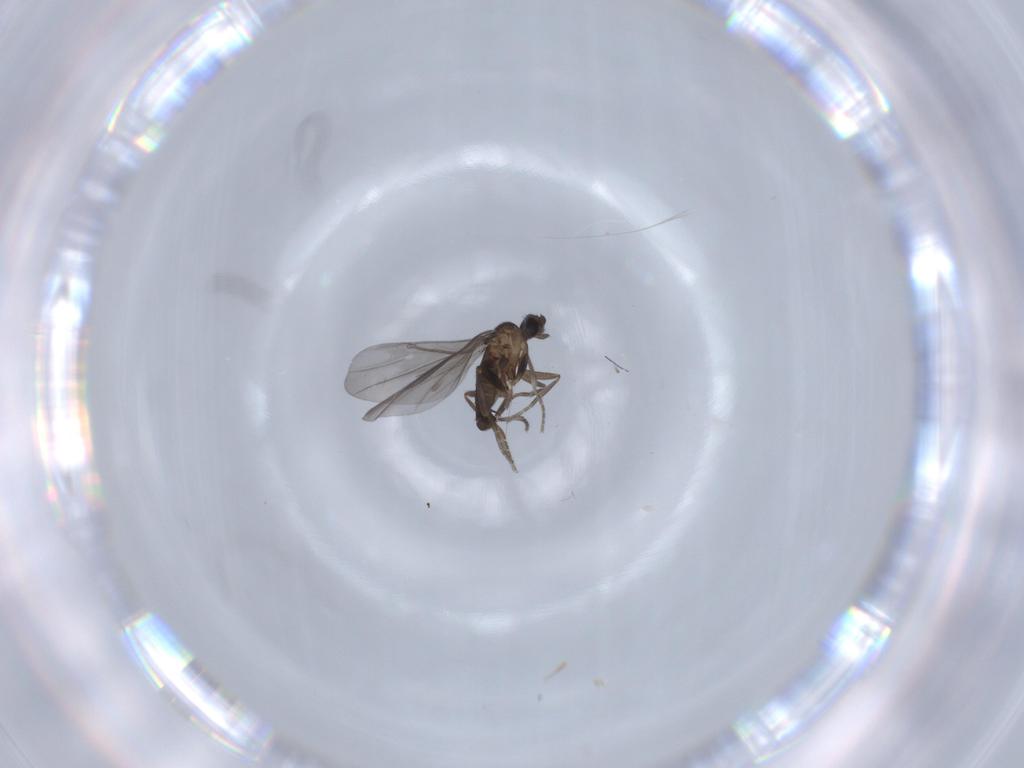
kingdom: Animalia
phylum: Arthropoda
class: Insecta
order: Diptera
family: Phoridae
